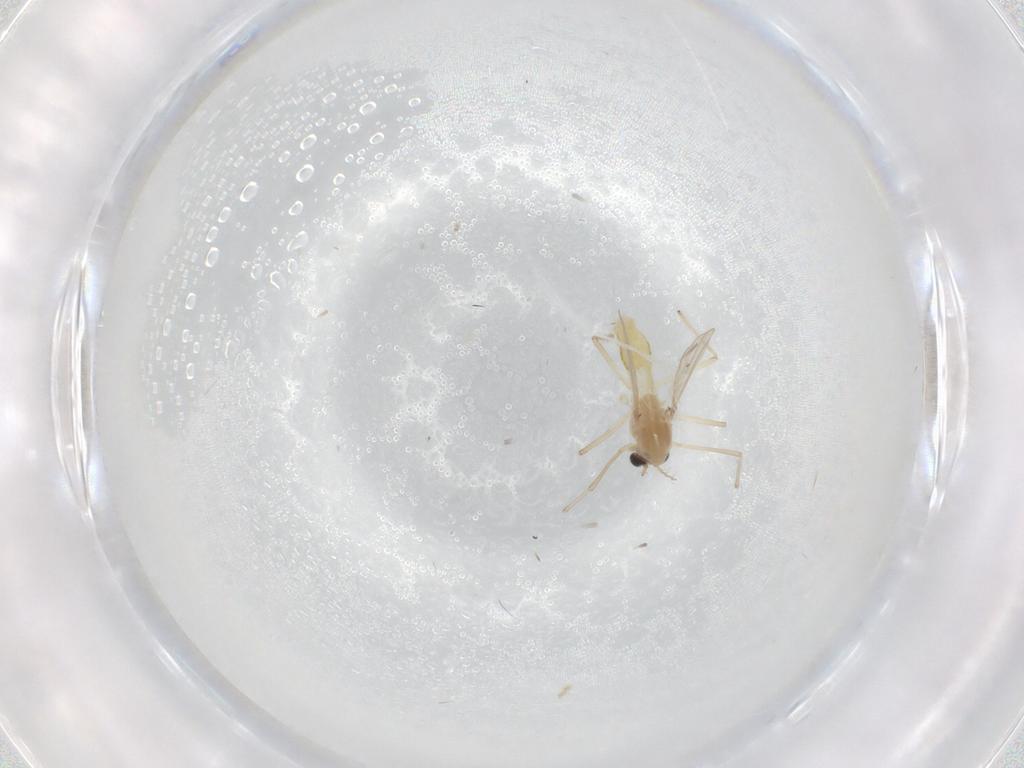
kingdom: Animalia
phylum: Arthropoda
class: Insecta
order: Diptera
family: Chironomidae
